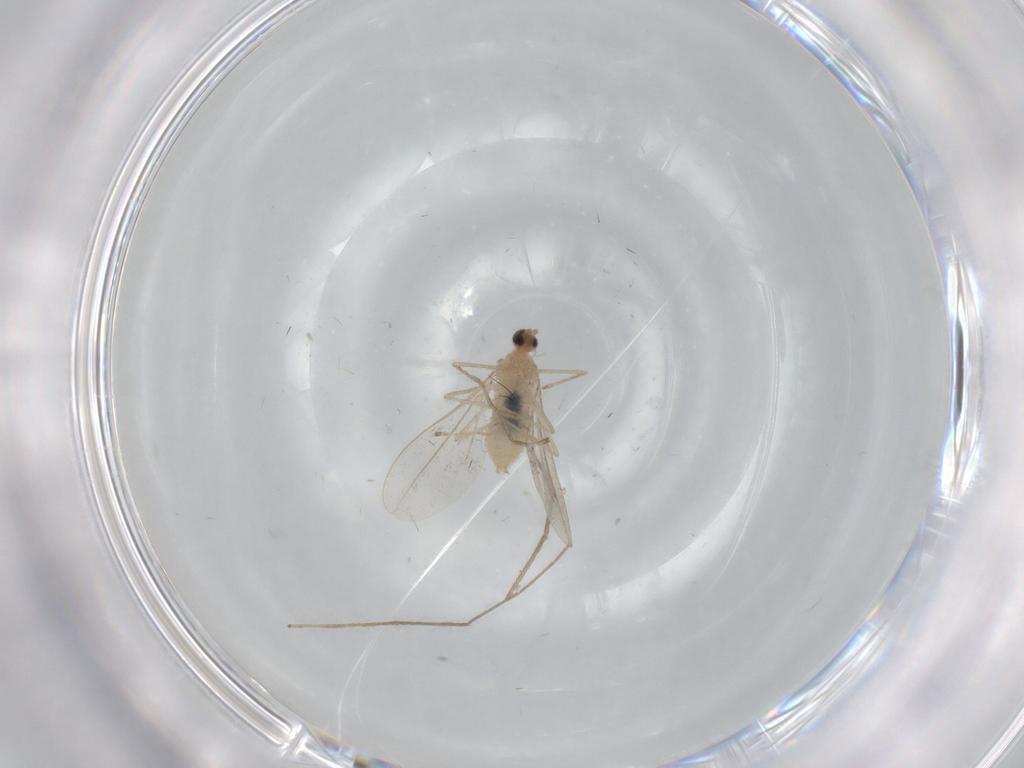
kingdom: Animalia
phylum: Arthropoda
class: Insecta
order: Diptera
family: Cecidomyiidae
